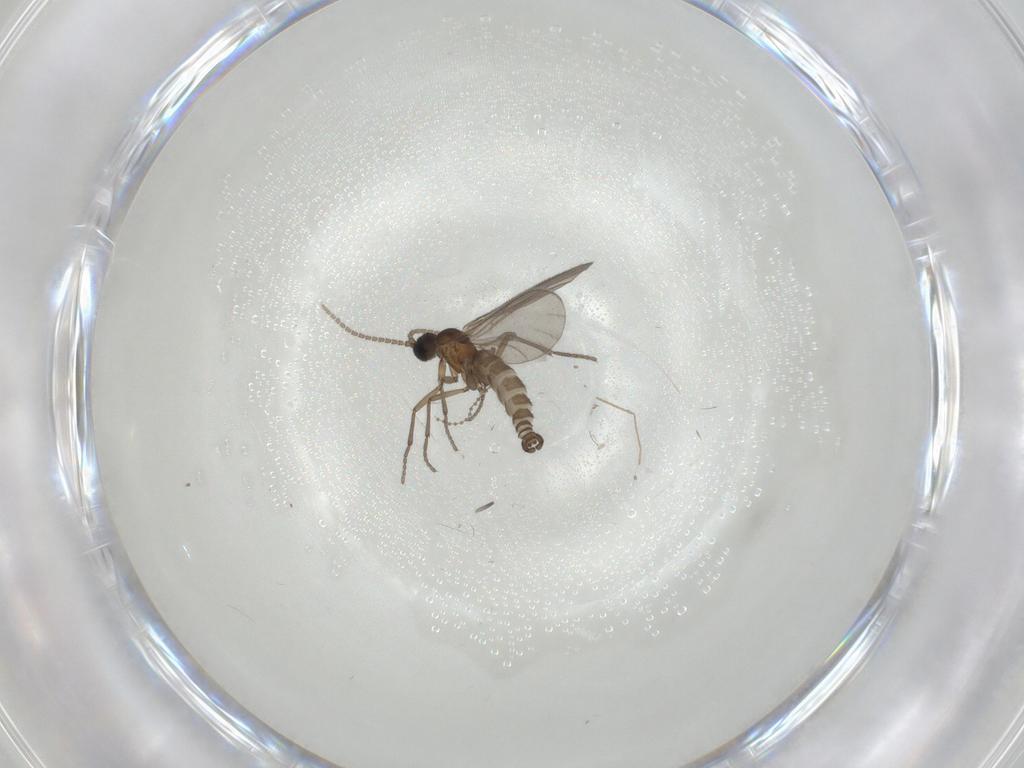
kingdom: Animalia
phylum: Arthropoda
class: Insecta
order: Diptera
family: Sciaridae
